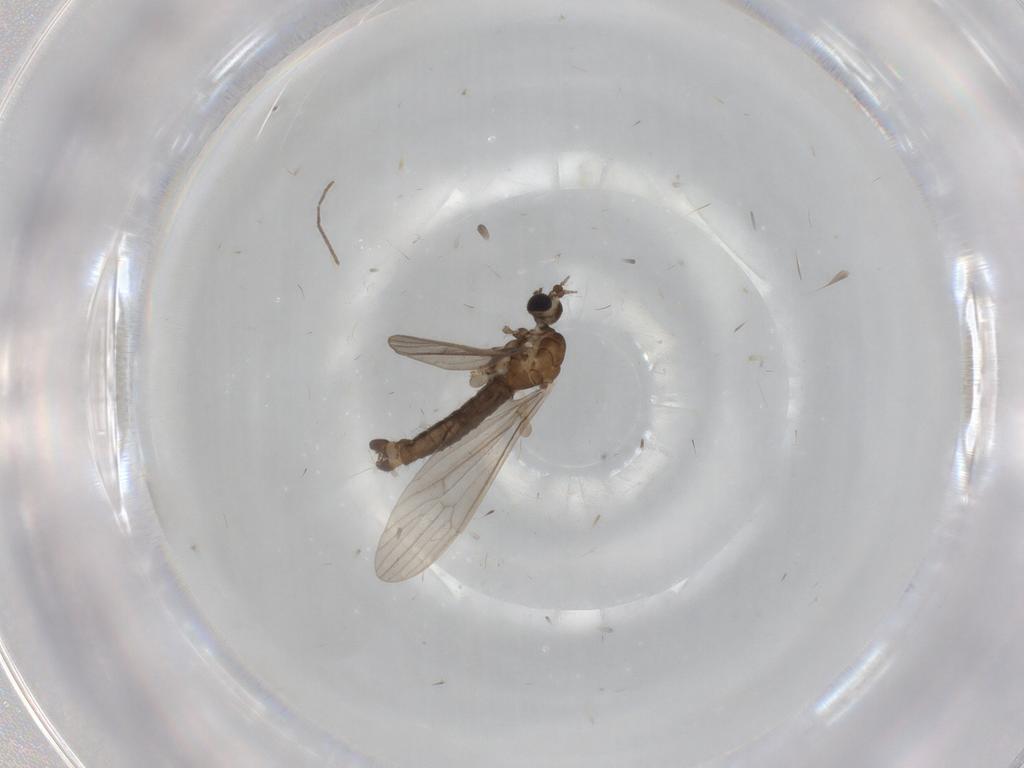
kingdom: Animalia
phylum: Arthropoda
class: Insecta
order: Diptera
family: Limoniidae
